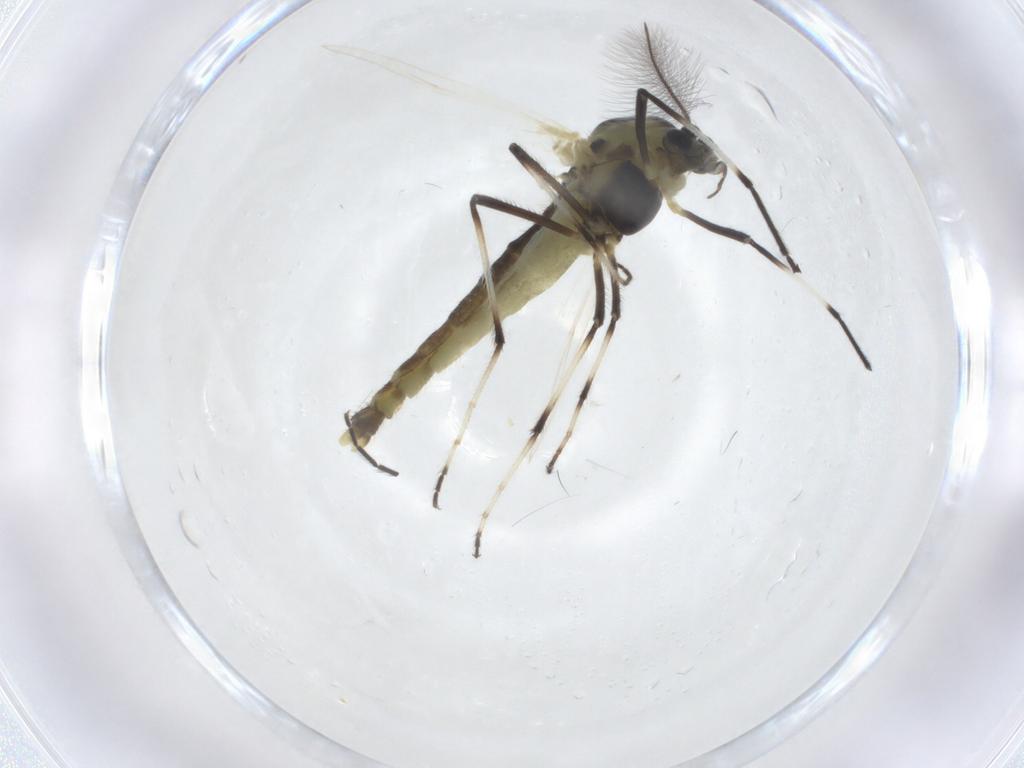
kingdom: Animalia
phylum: Arthropoda
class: Insecta
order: Diptera
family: Chironomidae
